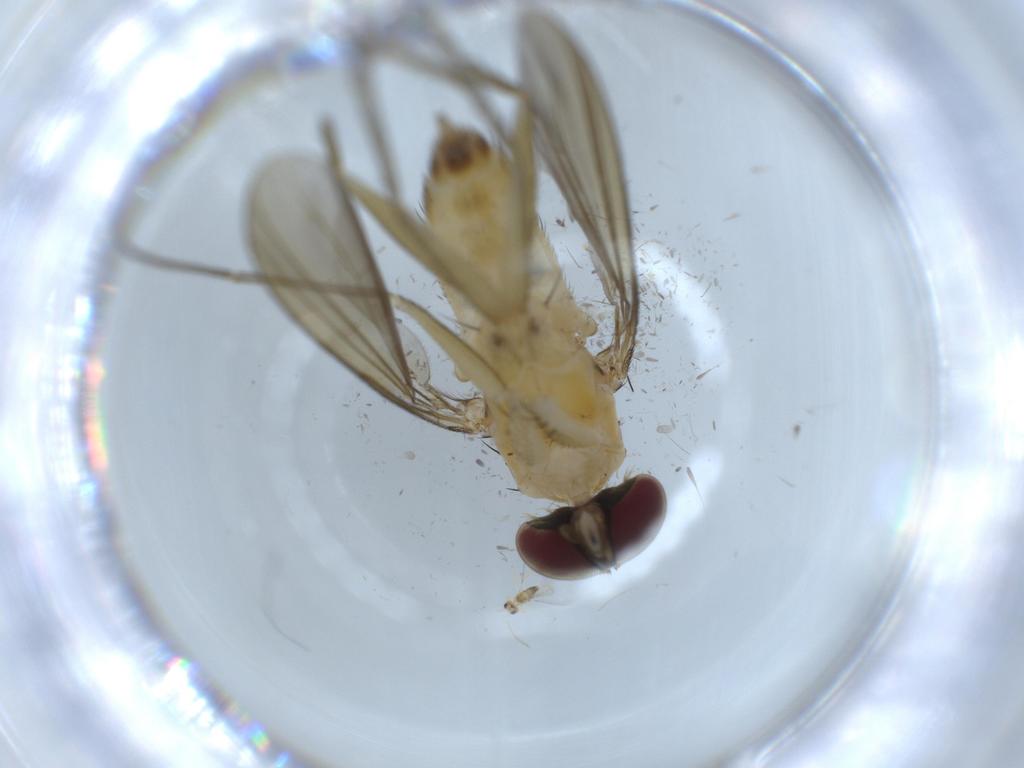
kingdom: Animalia
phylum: Arthropoda
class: Insecta
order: Diptera
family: Dolichopodidae
